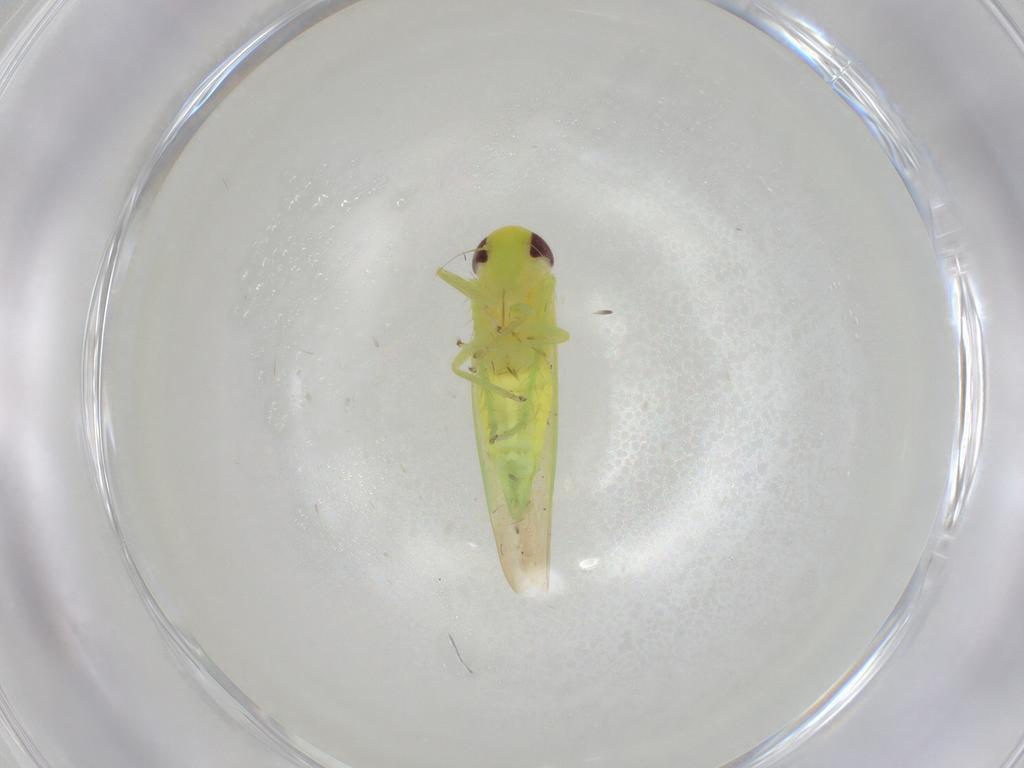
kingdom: Animalia
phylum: Arthropoda
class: Insecta
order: Hemiptera
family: Cicadellidae
